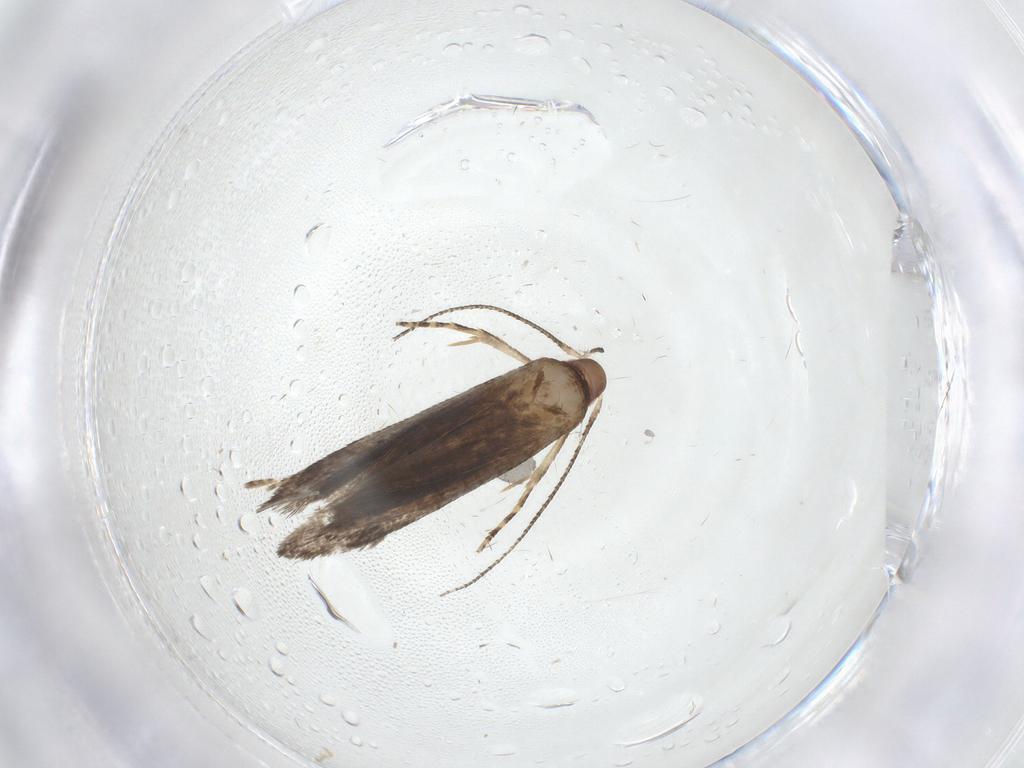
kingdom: Animalia
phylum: Arthropoda
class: Insecta
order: Lepidoptera
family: Gelechiidae
